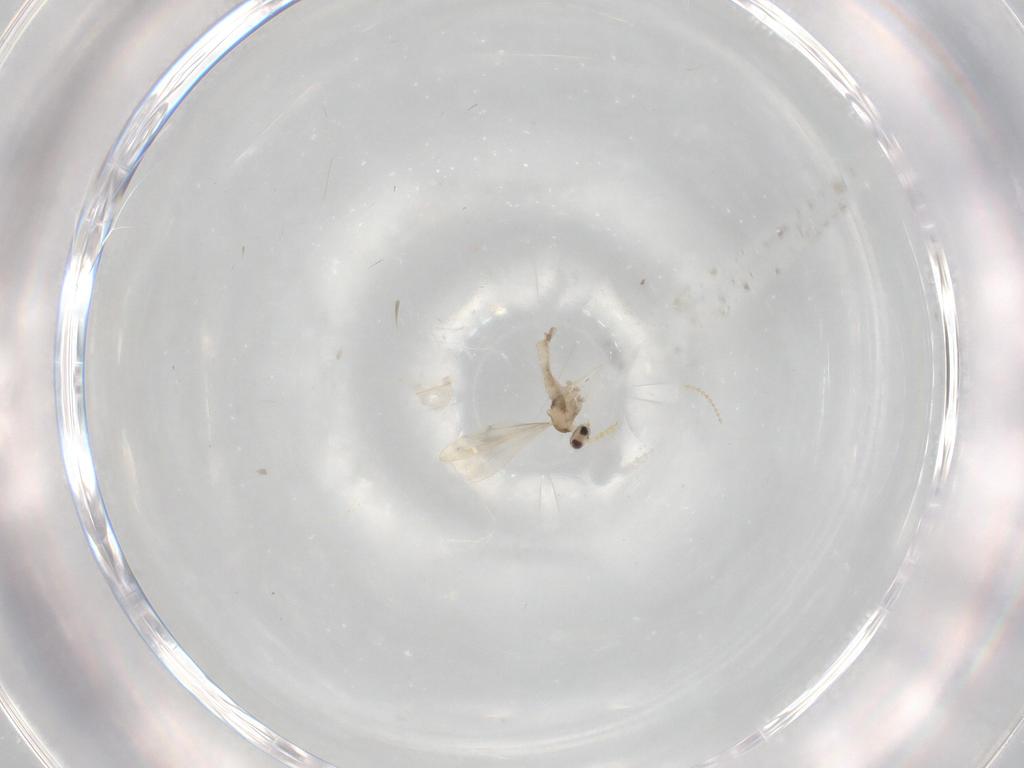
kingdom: Animalia
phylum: Arthropoda
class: Insecta
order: Diptera
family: Cecidomyiidae
